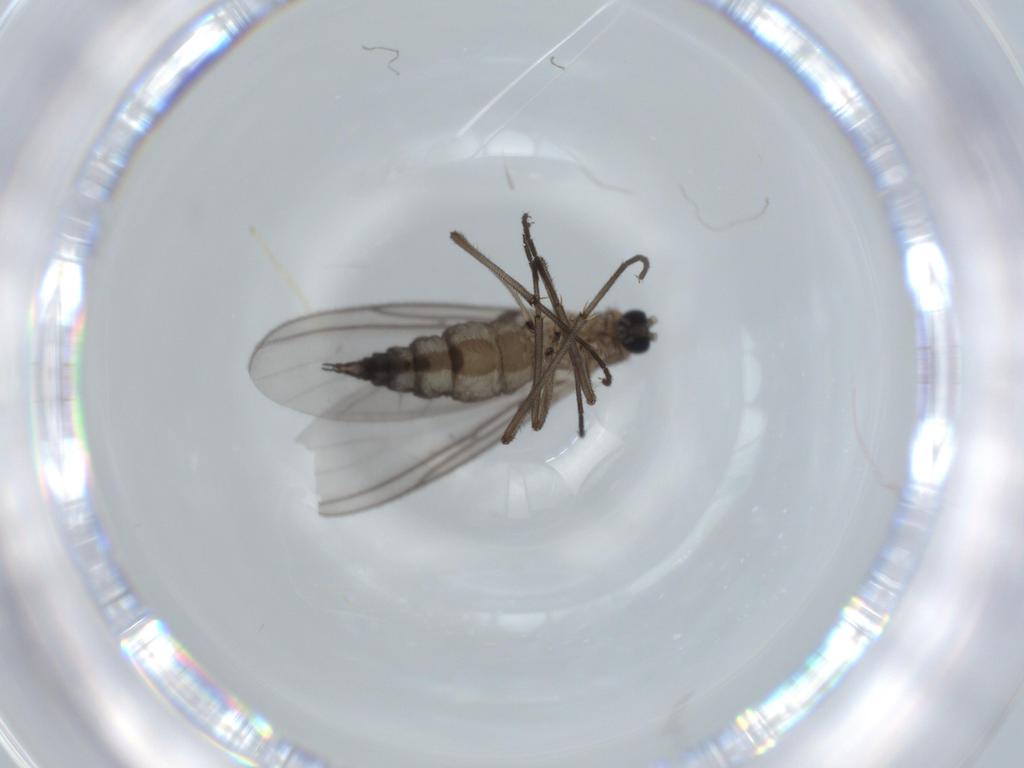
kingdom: Animalia
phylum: Arthropoda
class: Insecta
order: Diptera
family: Sciaridae
